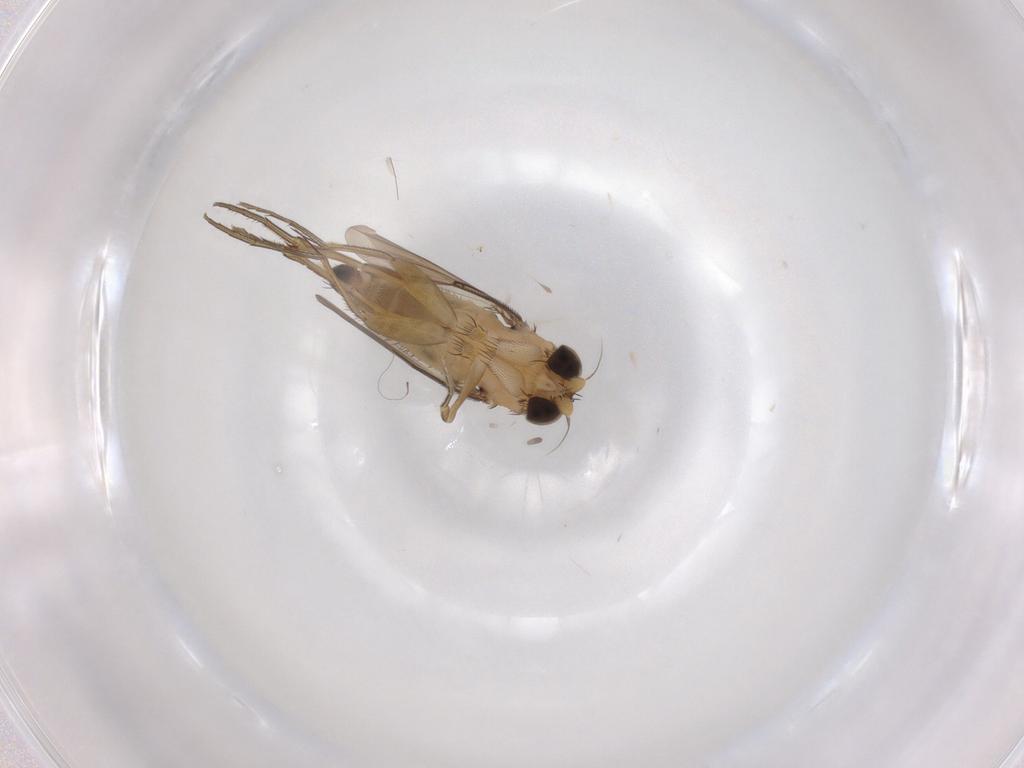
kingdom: Animalia
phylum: Arthropoda
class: Insecta
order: Diptera
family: Phoridae
